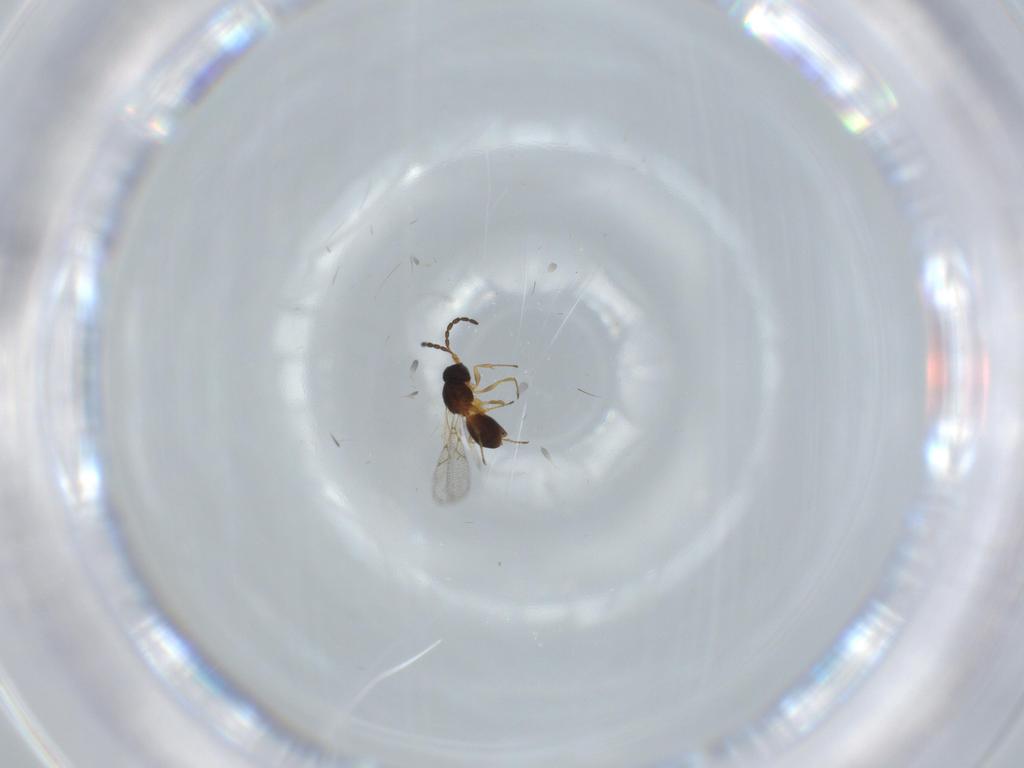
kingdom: Animalia
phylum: Arthropoda
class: Insecta
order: Hymenoptera
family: Figitidae
